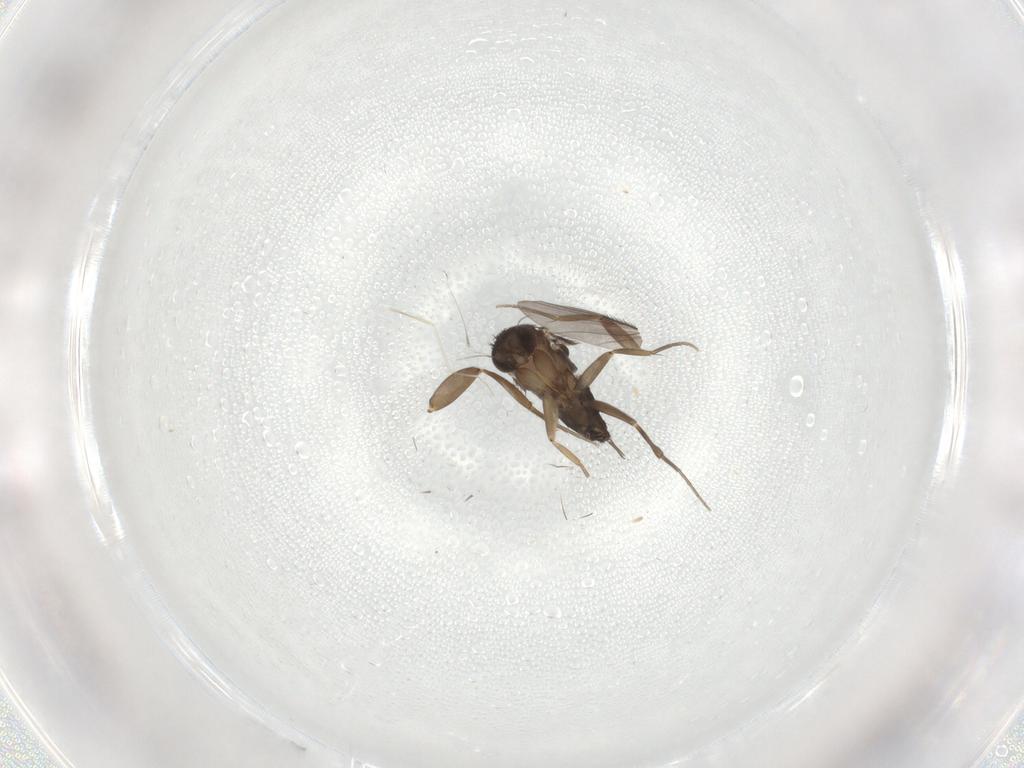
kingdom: Animalia
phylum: Arthropoda
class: Insecta
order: Diptera
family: Phoridae
